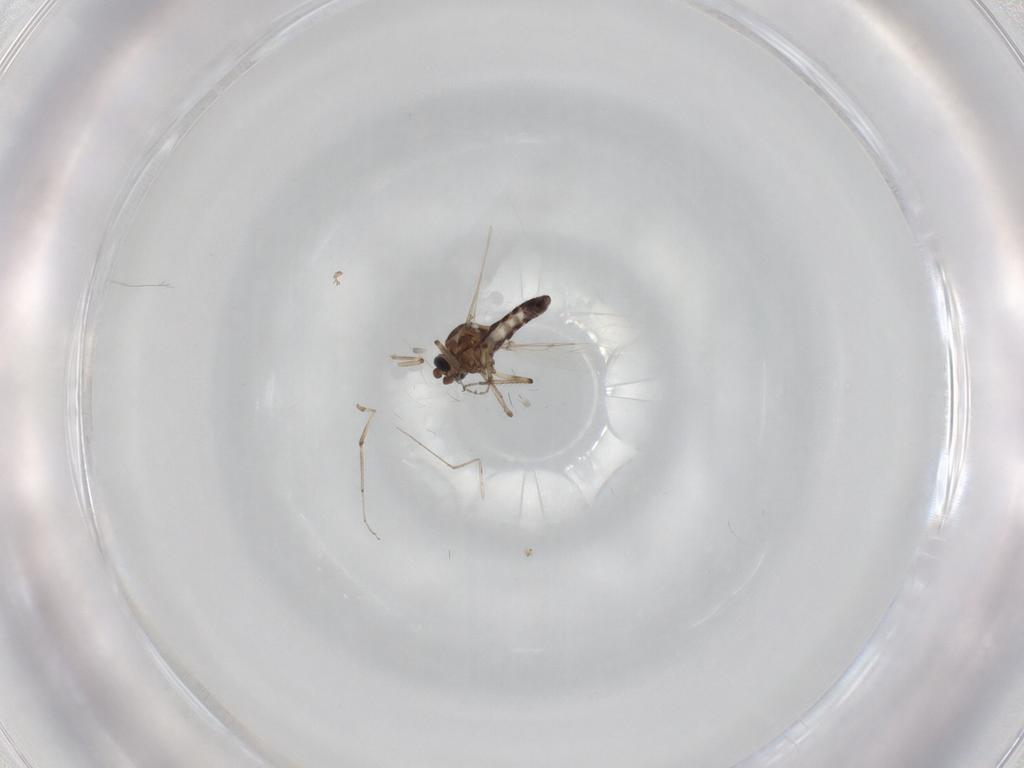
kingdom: Animalia
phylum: Arthropoda
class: Insecta
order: Diptera
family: Ceratopogonidae
